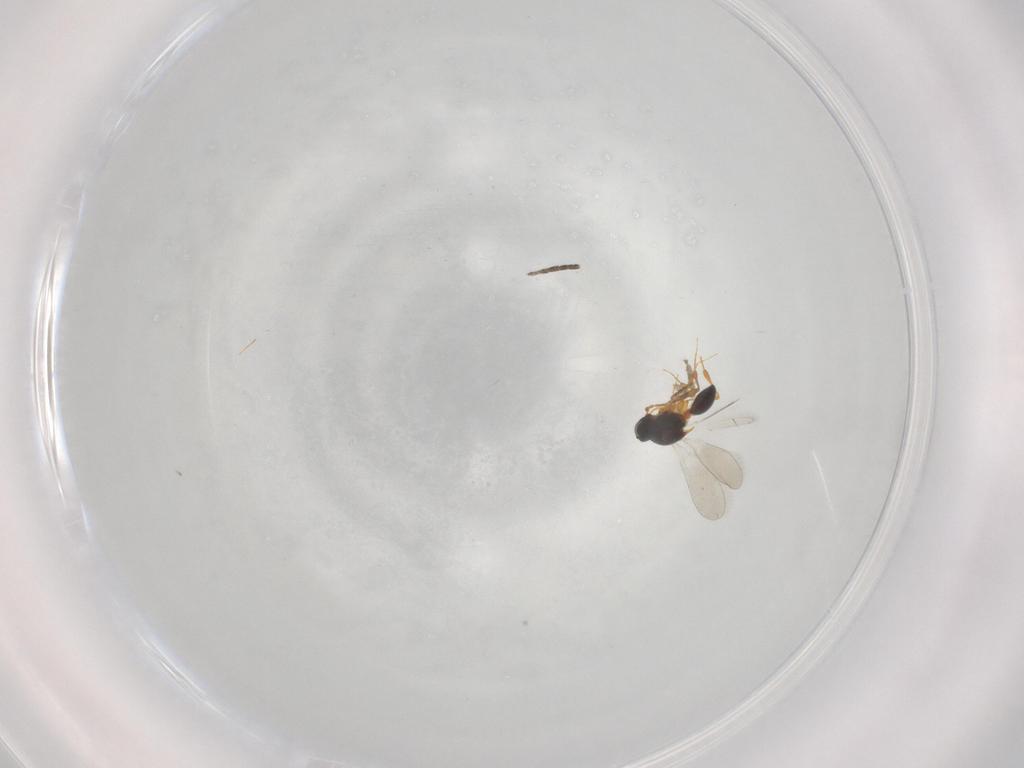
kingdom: Animalia
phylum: Arthropoda
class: Insecta
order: Hymenoptera
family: Platygastridae
